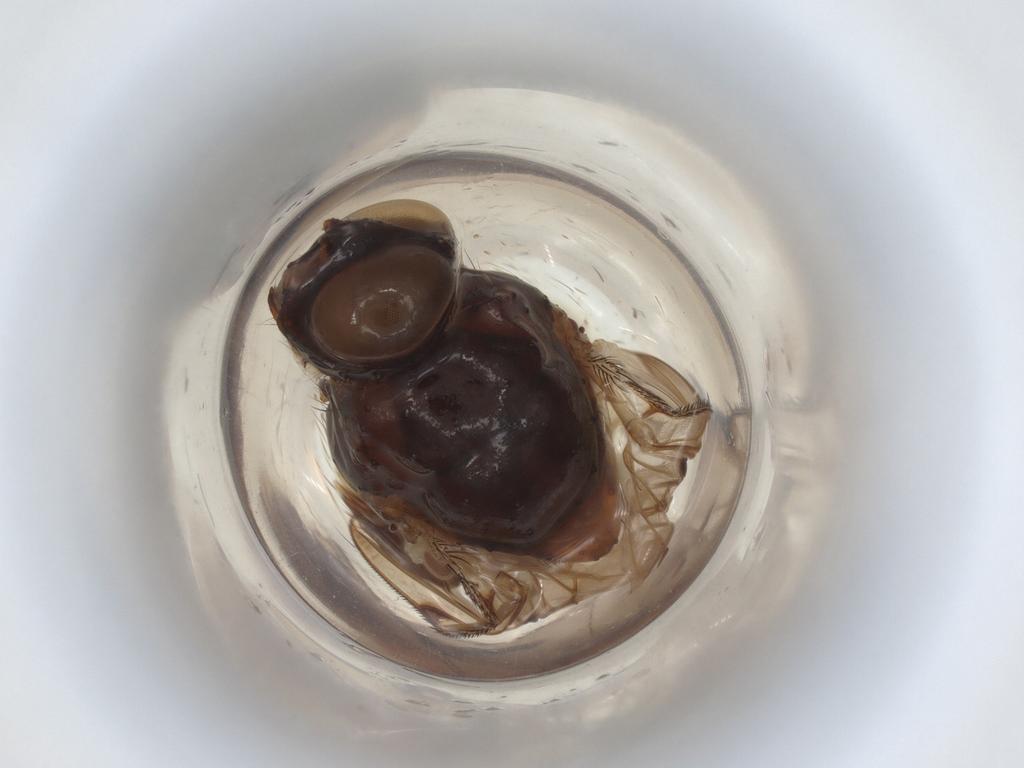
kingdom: Animalia
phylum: Arthropoda
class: Insecta
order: Diptera
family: Anthomyiidae
